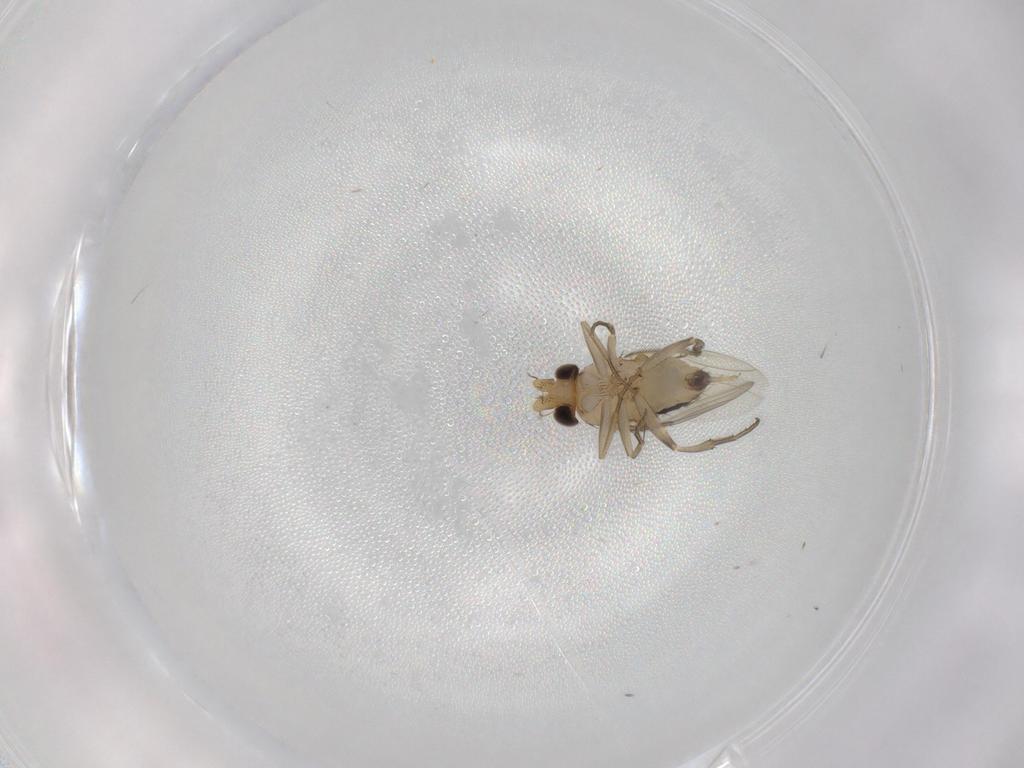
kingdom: Animalia
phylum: Arthropoda
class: Insecta
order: Diptera
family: Phoridae
